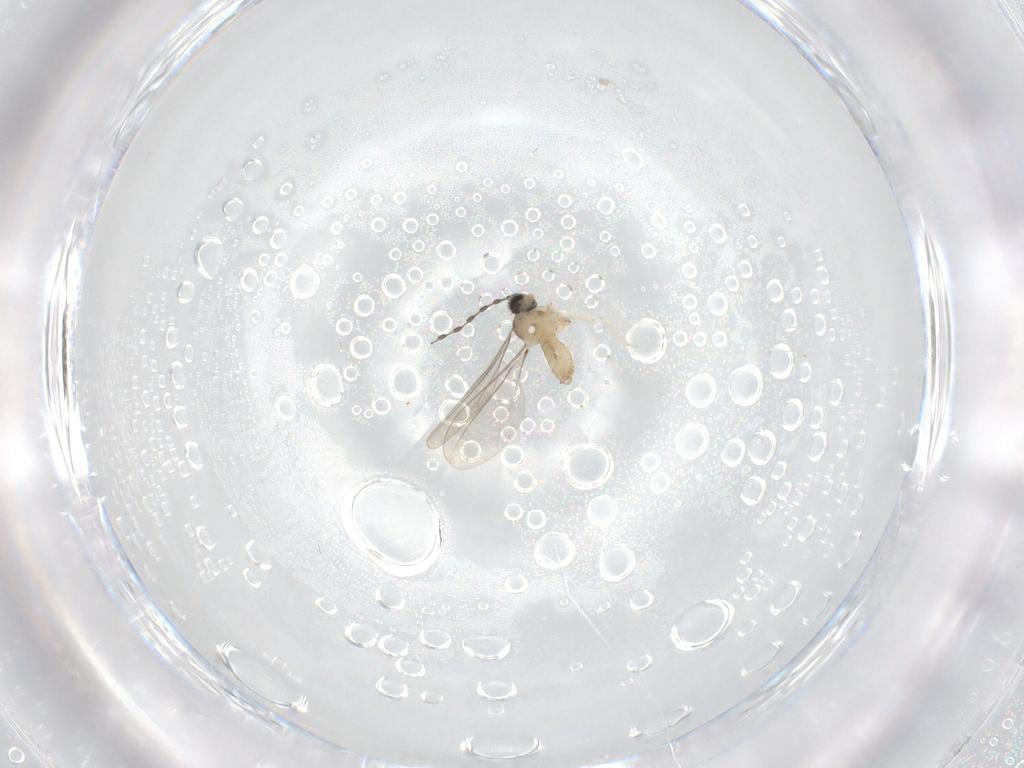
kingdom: Animalia
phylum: Arthropoda
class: Insecta
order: Diptera
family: Phoridae
